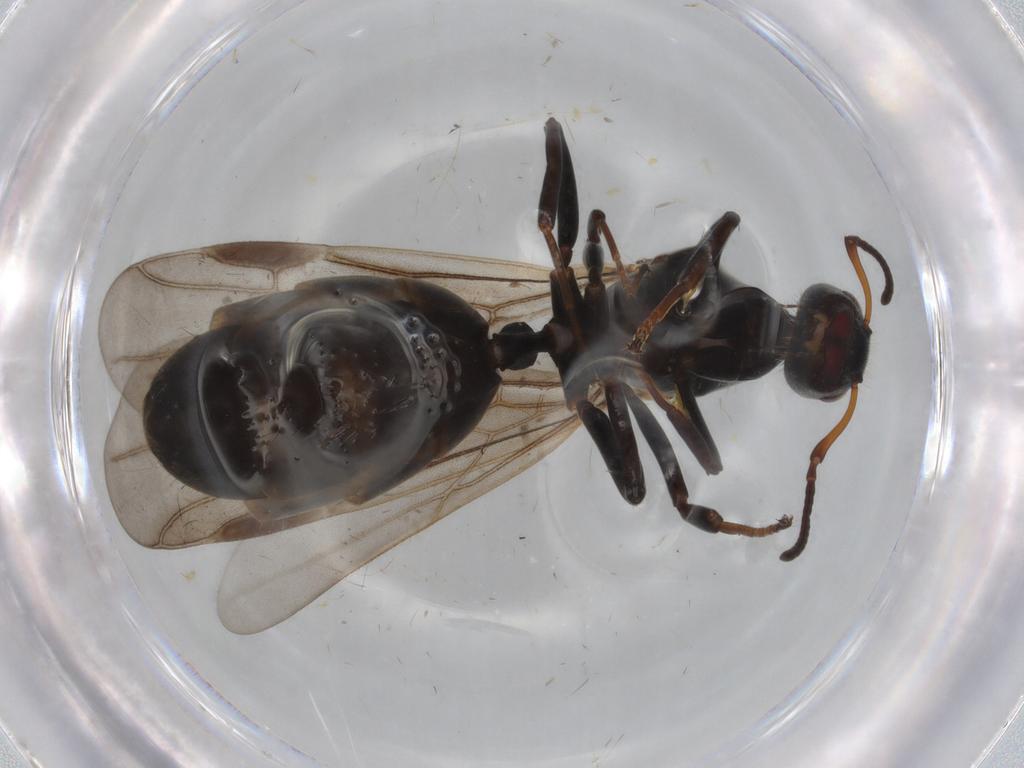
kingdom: Animalia
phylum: Arthropoda
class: Insecta
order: Hymenoptera
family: Formicidae
